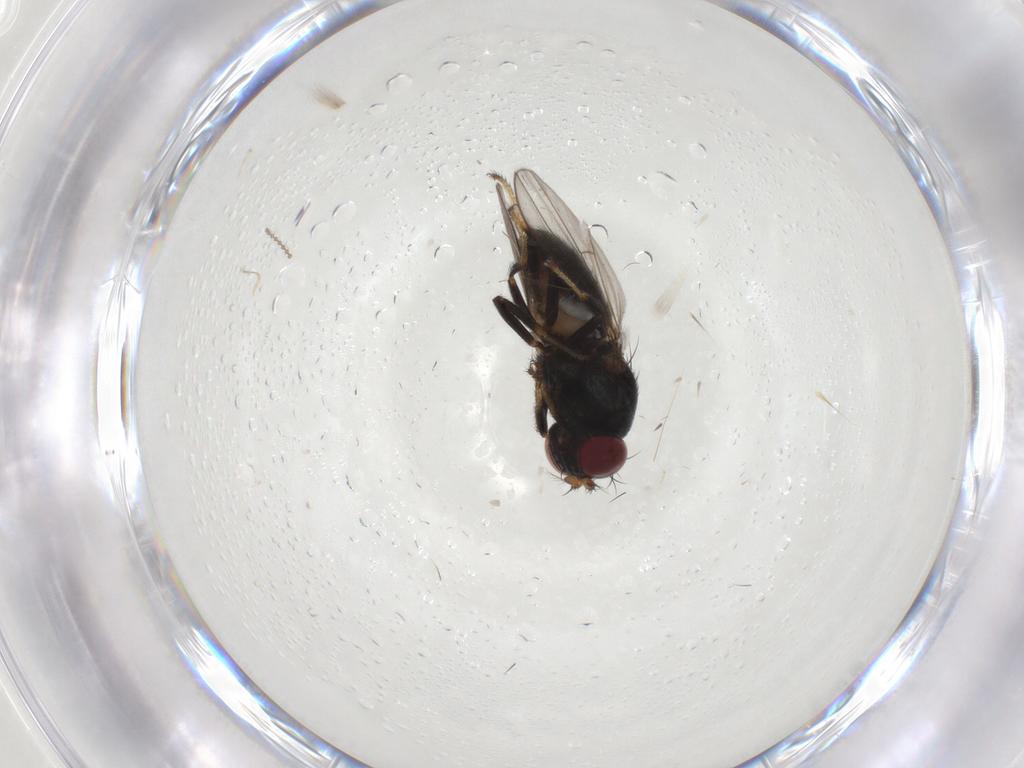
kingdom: Animalia
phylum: Arthropoda
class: Insecta
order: Diptera
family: Ephydridae
